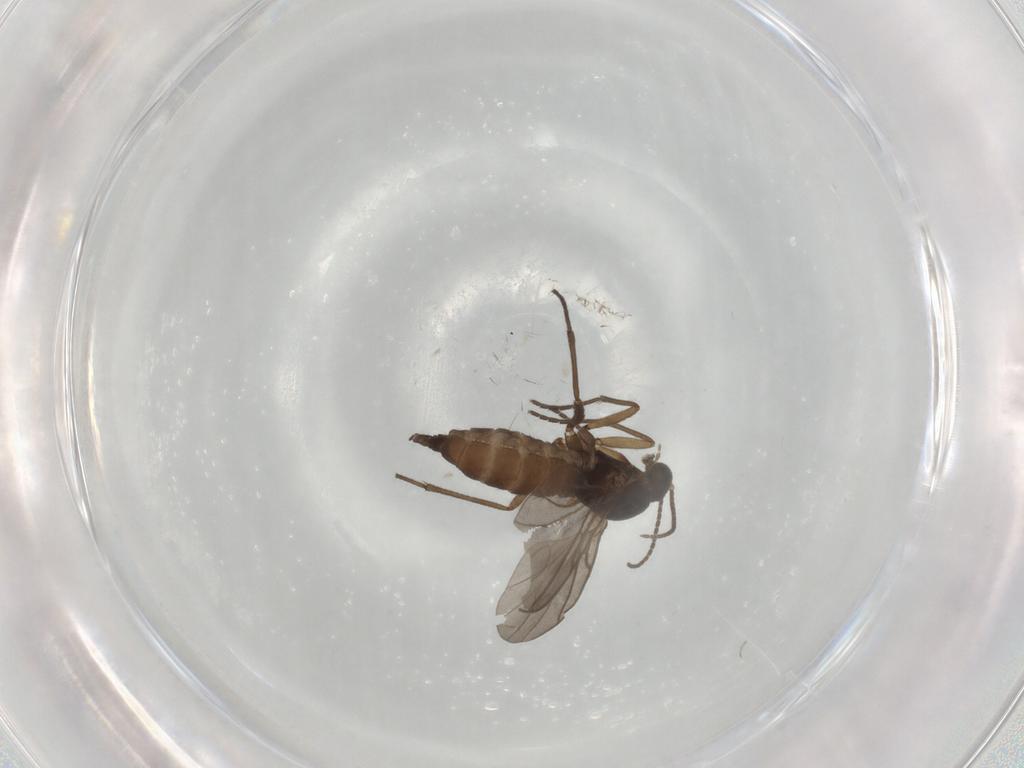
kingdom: Animalia
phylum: Arthropoda
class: Insecta
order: Diptera
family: Sciaridae
